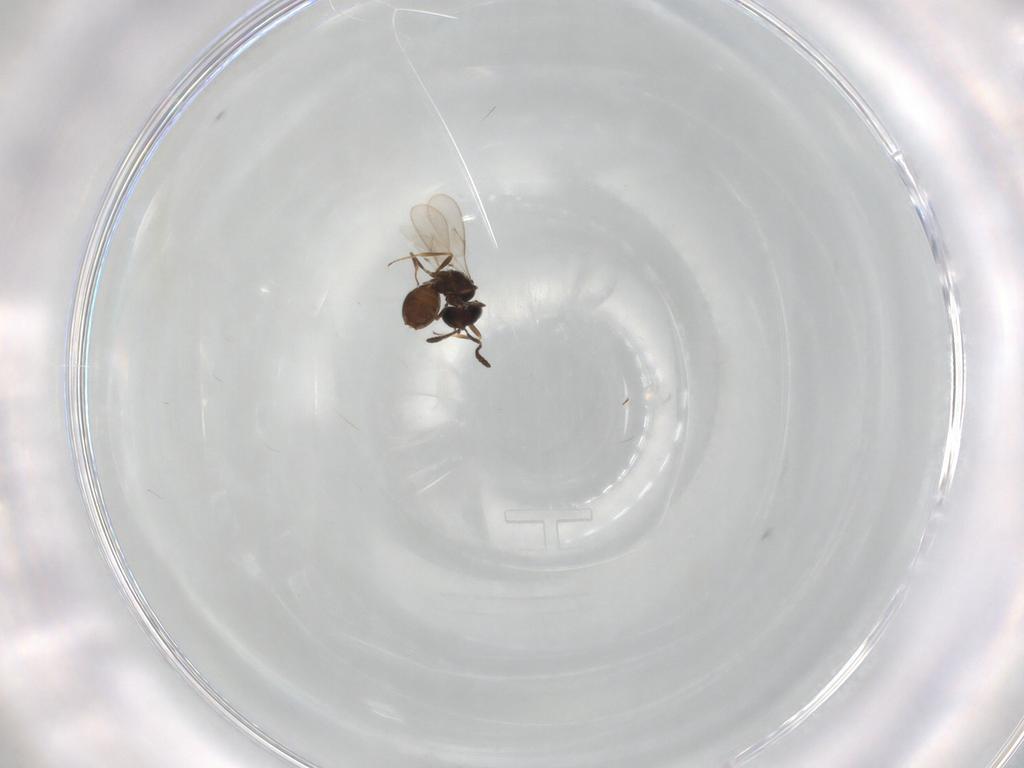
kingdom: Animalia
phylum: Arthropoda
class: Insecta
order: Hymenoptera
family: Scelionidae
